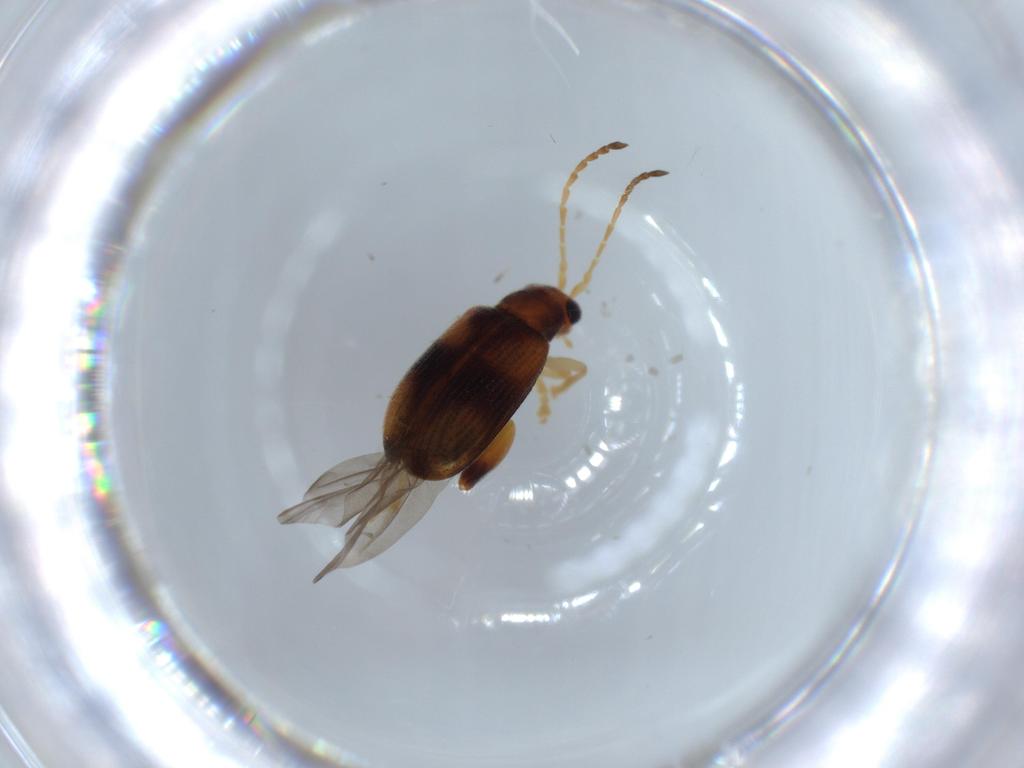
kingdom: Animalia
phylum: Arthropoda
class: Insecta
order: Coleoptera
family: Chrysomelidae
